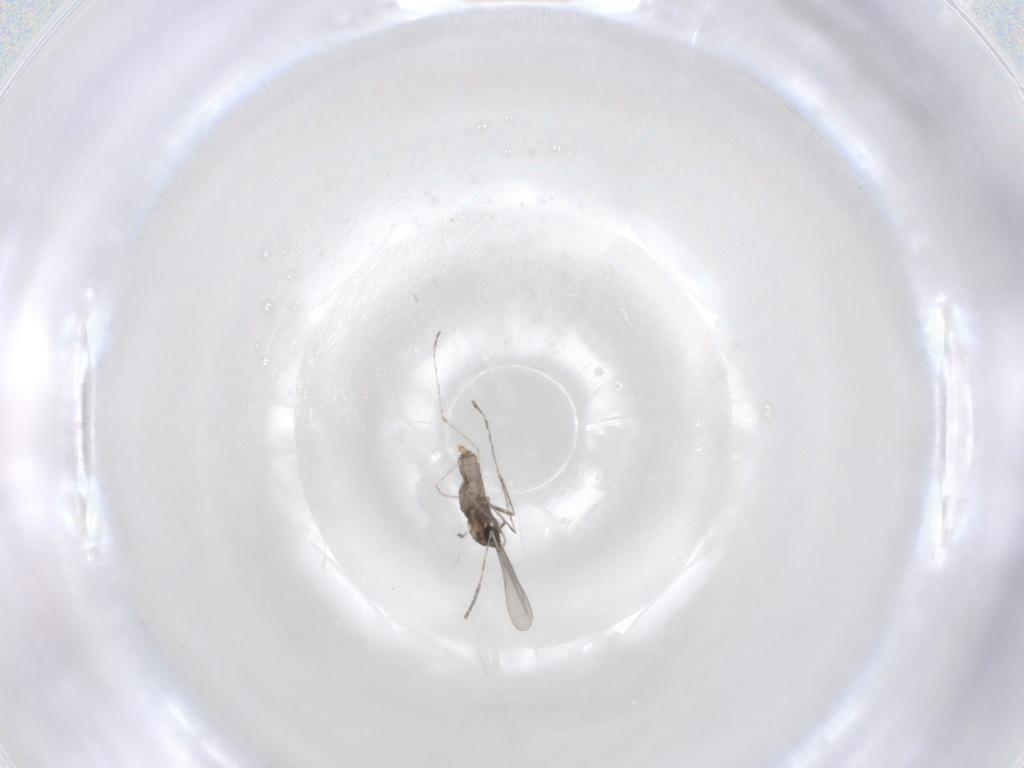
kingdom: Animalia
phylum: Arthropoda
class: Insecta
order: Diptera
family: Cecidomyiidae
